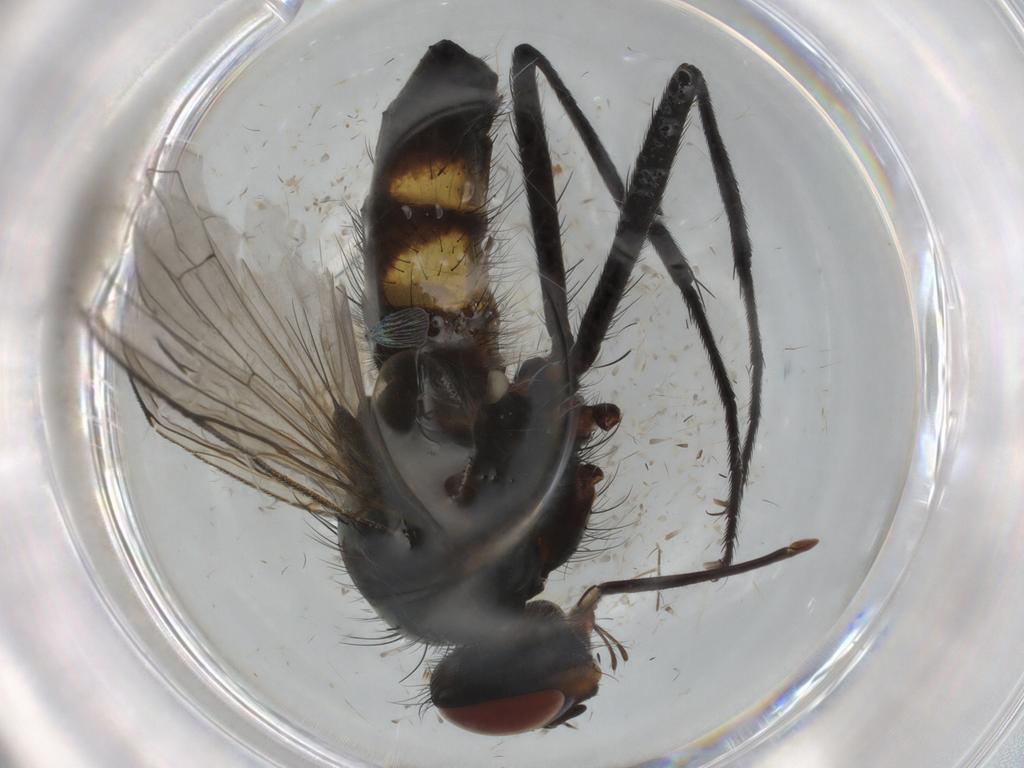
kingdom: Animalia
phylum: Arthropoda
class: Insecta
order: Diptera
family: Tachinidae
